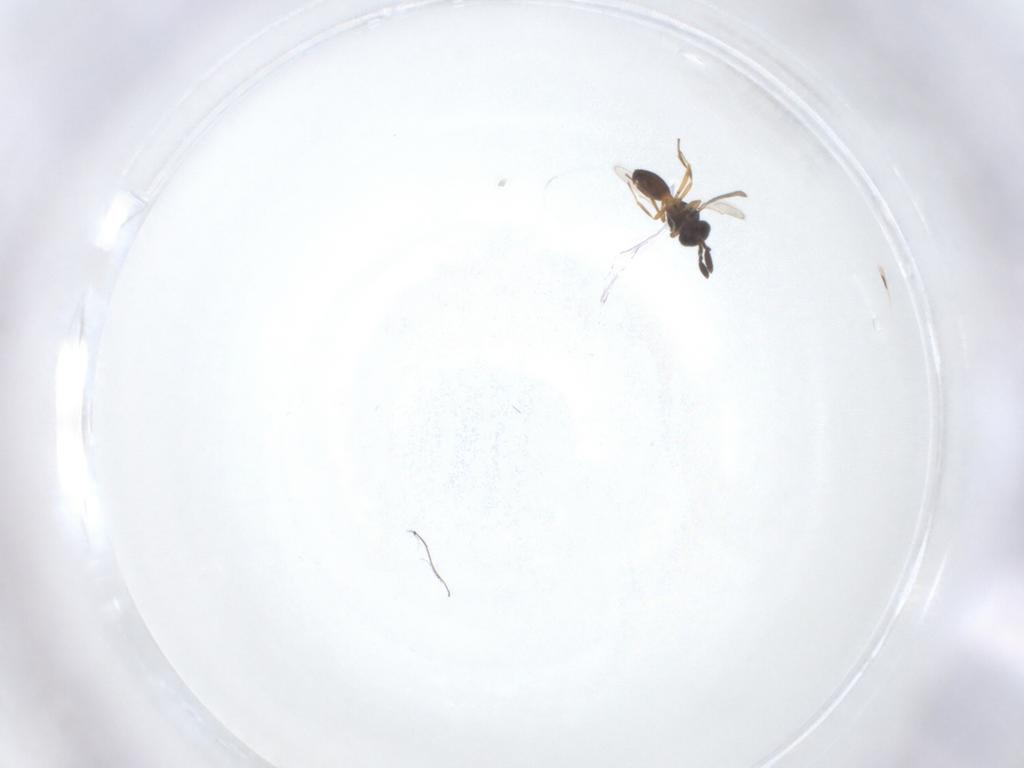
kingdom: Animalia
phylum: Arthropoda
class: Insecta
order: Hymenoptera
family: Scelionidae
